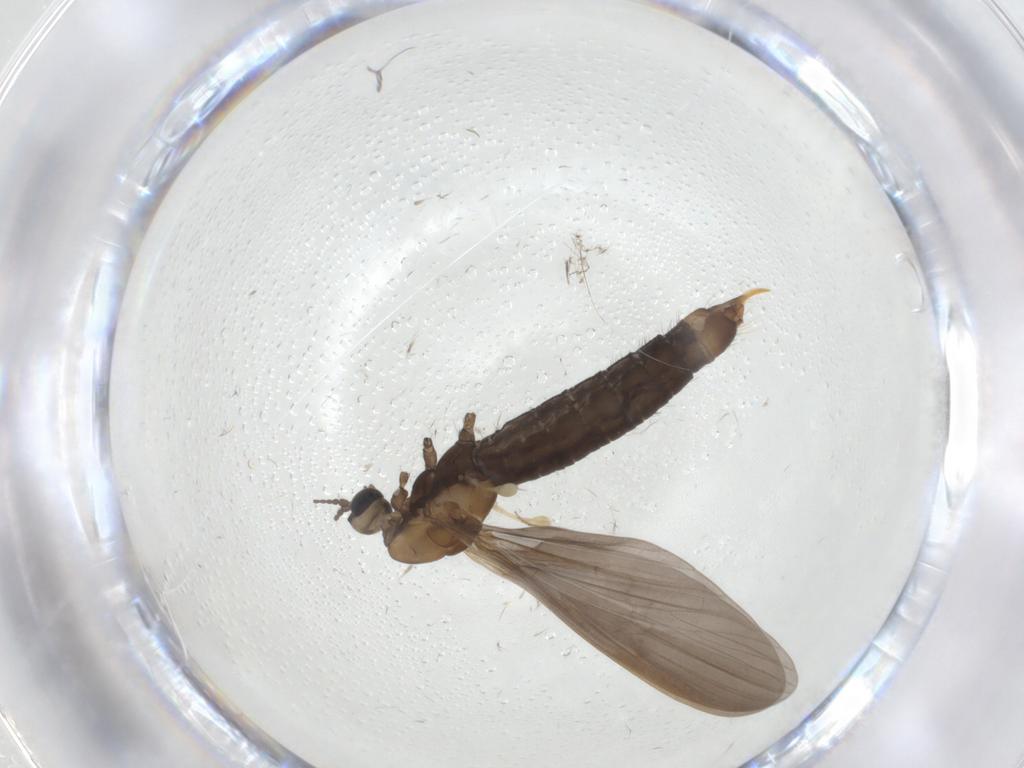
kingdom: Animalia
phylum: Arthropoda
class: Insecta
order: Diptera
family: Limoniidae
